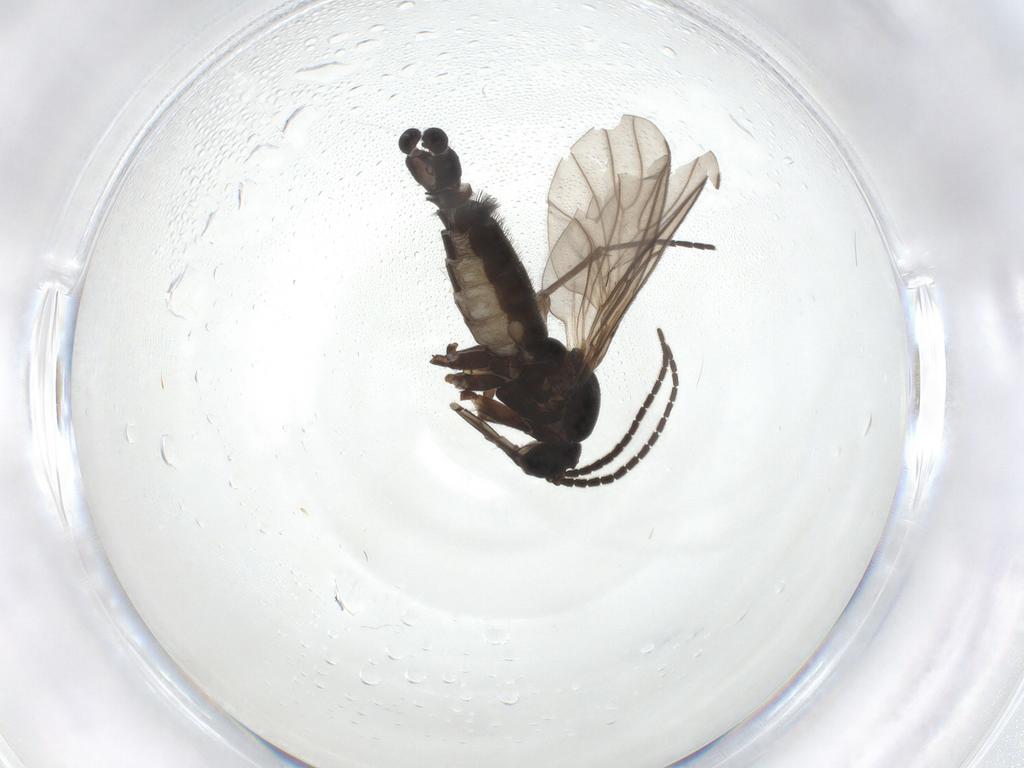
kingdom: Animalia
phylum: Arthropoda
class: Insecta
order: Diptera
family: Sciaridae
